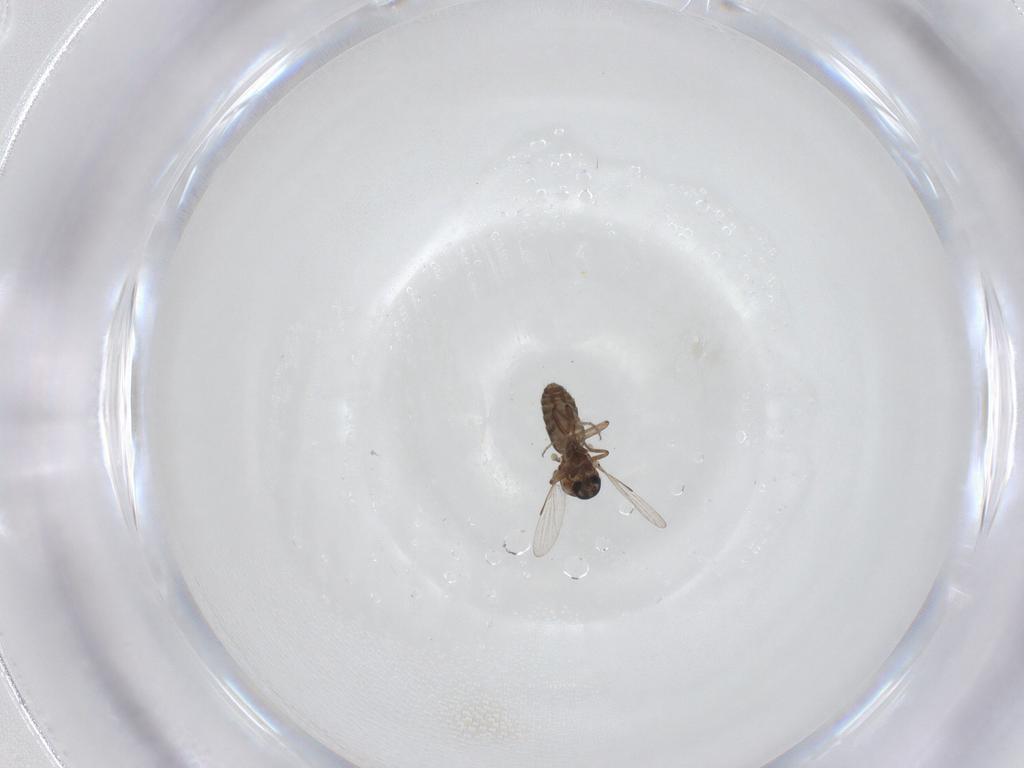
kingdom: Animalia
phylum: Arthropoda
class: Insecta
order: Diptera
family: Ceratopogonidae
